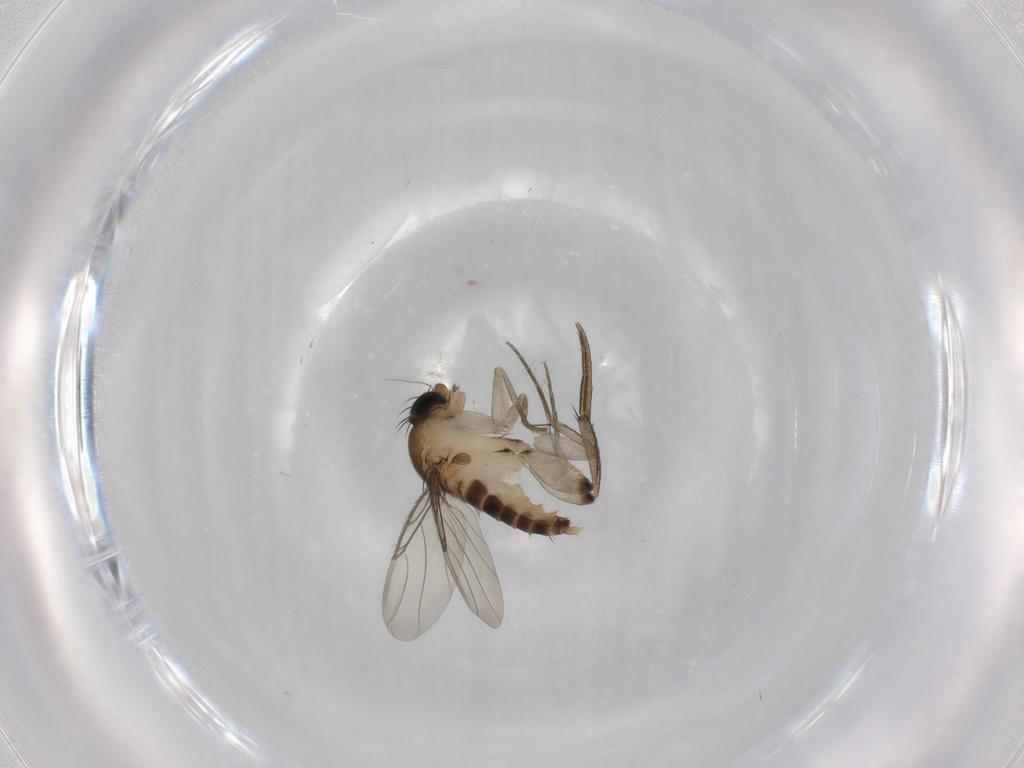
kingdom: Animalia
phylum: Arthropoda
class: Insecta
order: Diptera
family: Phoridae
